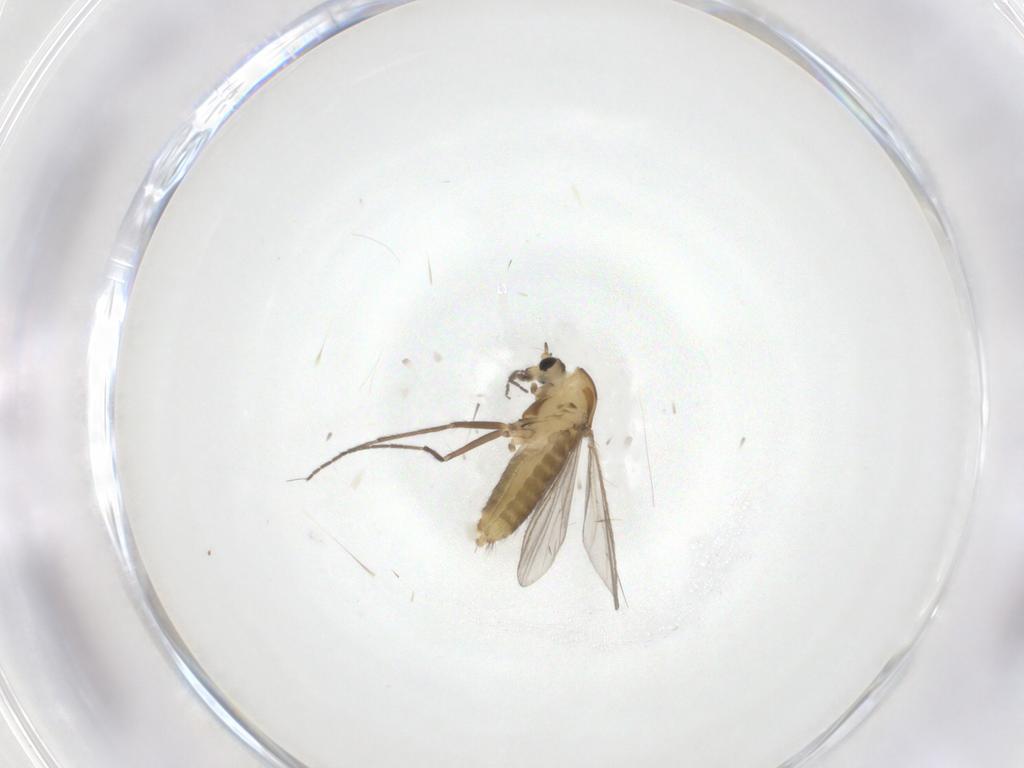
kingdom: Animalia
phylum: Arthropoda
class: Insecta
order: Diptera
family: Chironomidae
